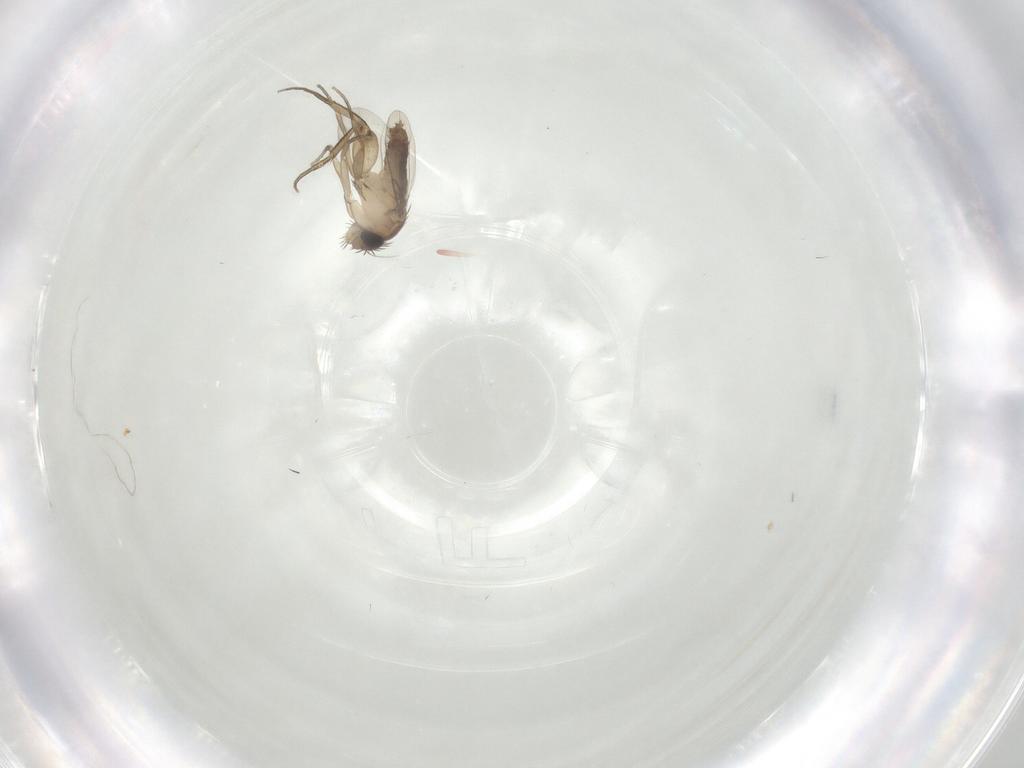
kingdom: Animalia
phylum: Arthropoda
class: Insecta
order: Diptera
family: Phoridae
